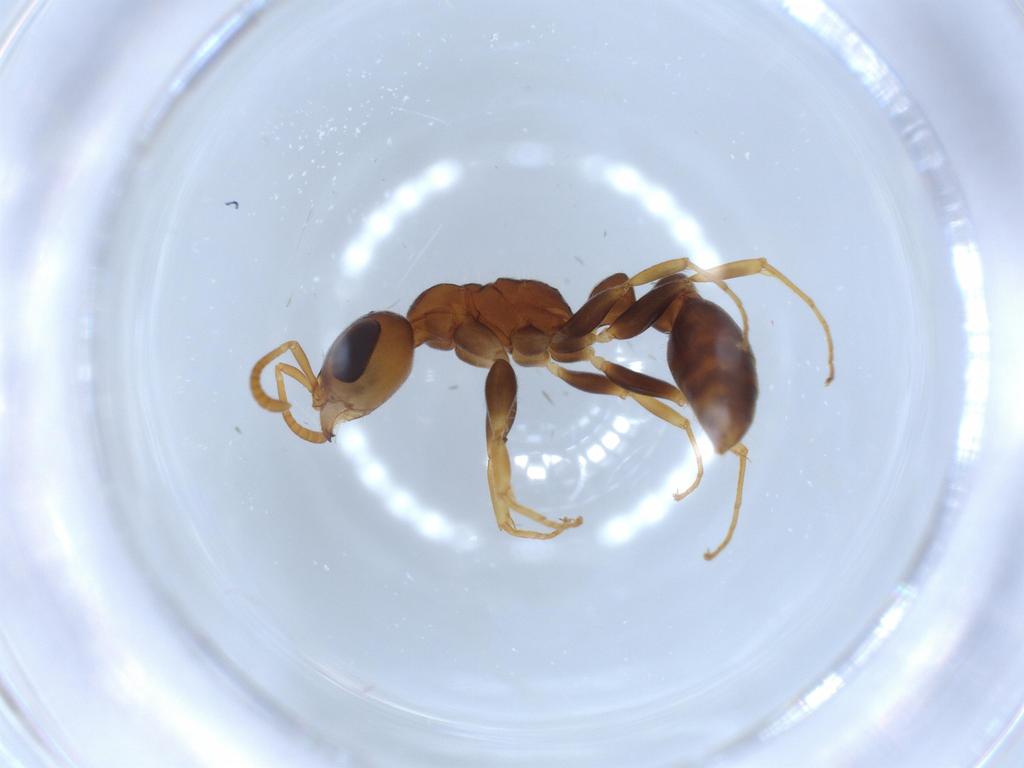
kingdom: Animalia
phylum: Arthropoda
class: Insecta
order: Hymenoptera
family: Formicidae
